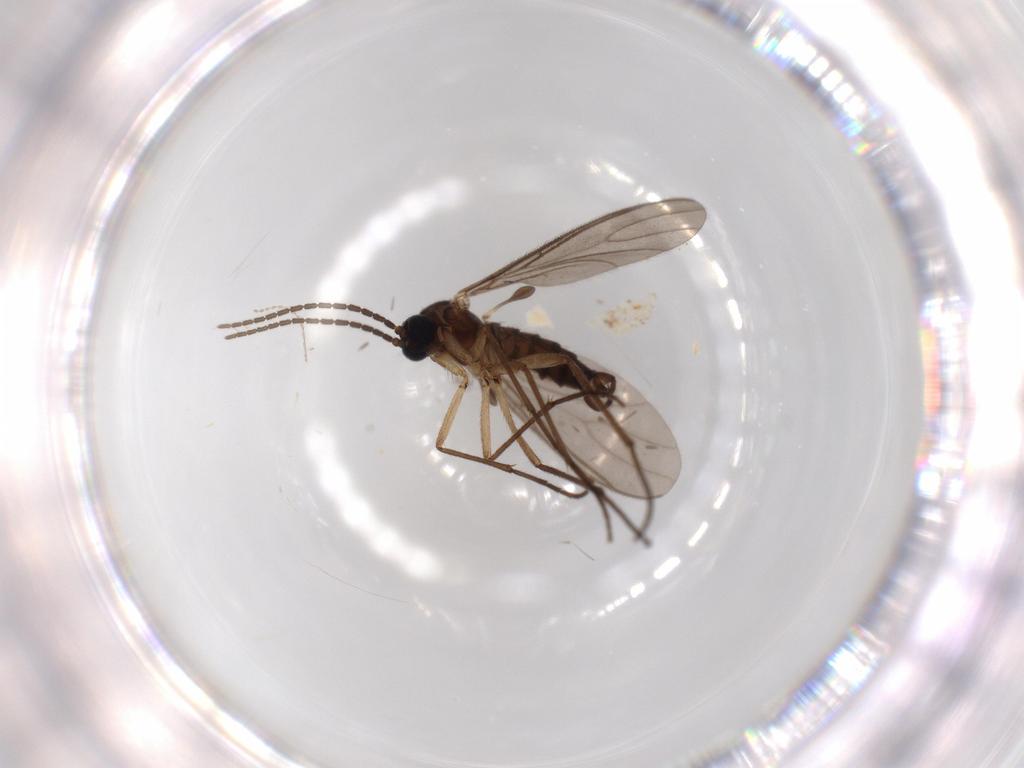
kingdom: Animalia
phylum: Arthropoda
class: Insecta
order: Diptera
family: Sciaridae
